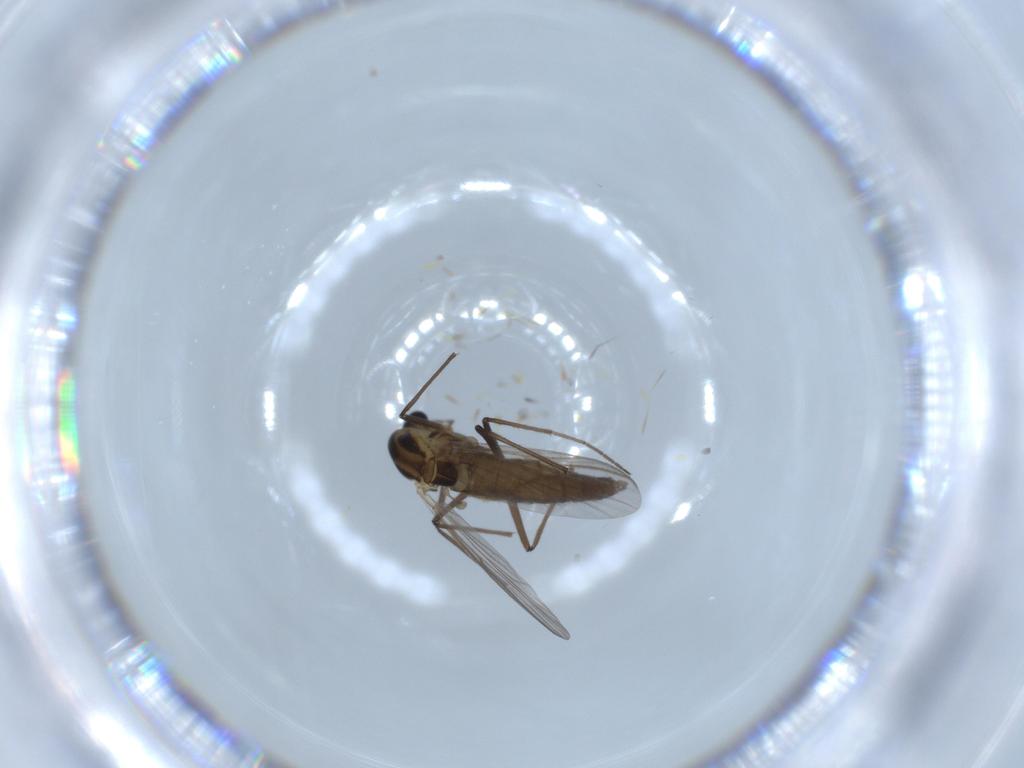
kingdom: Animalia
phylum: Arthropoda
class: Insecta
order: Diptera
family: Chironomidae
